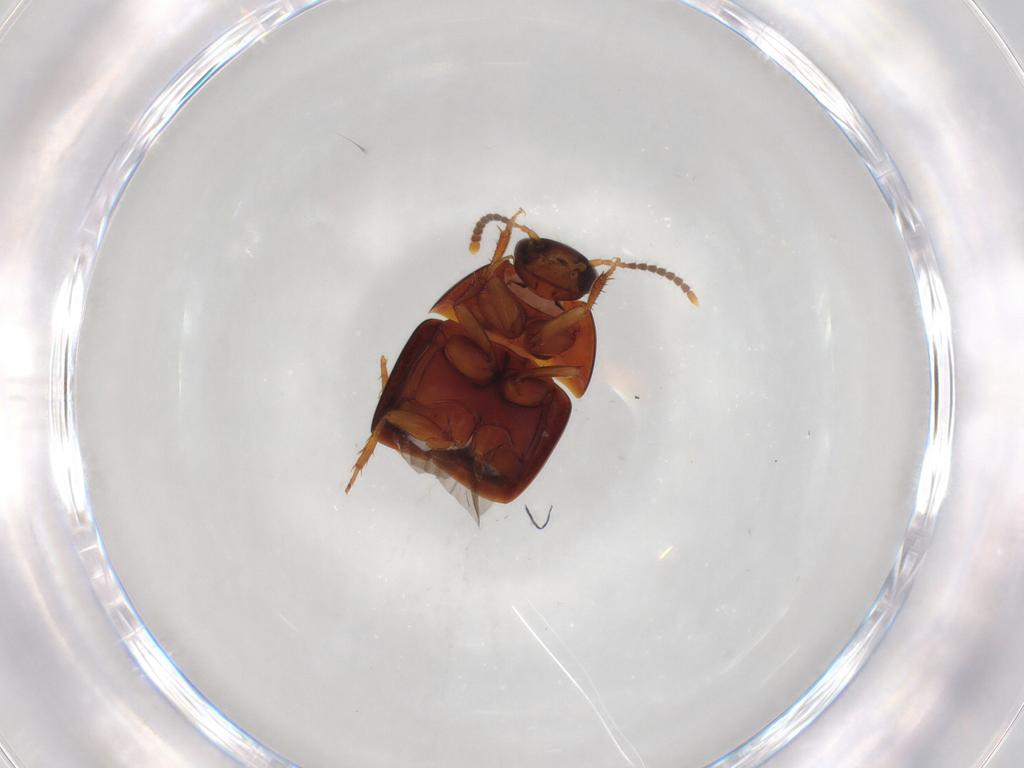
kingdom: Animalia
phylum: Arthropoda
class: Insecta
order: Coleoptera
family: Staphylinidae
